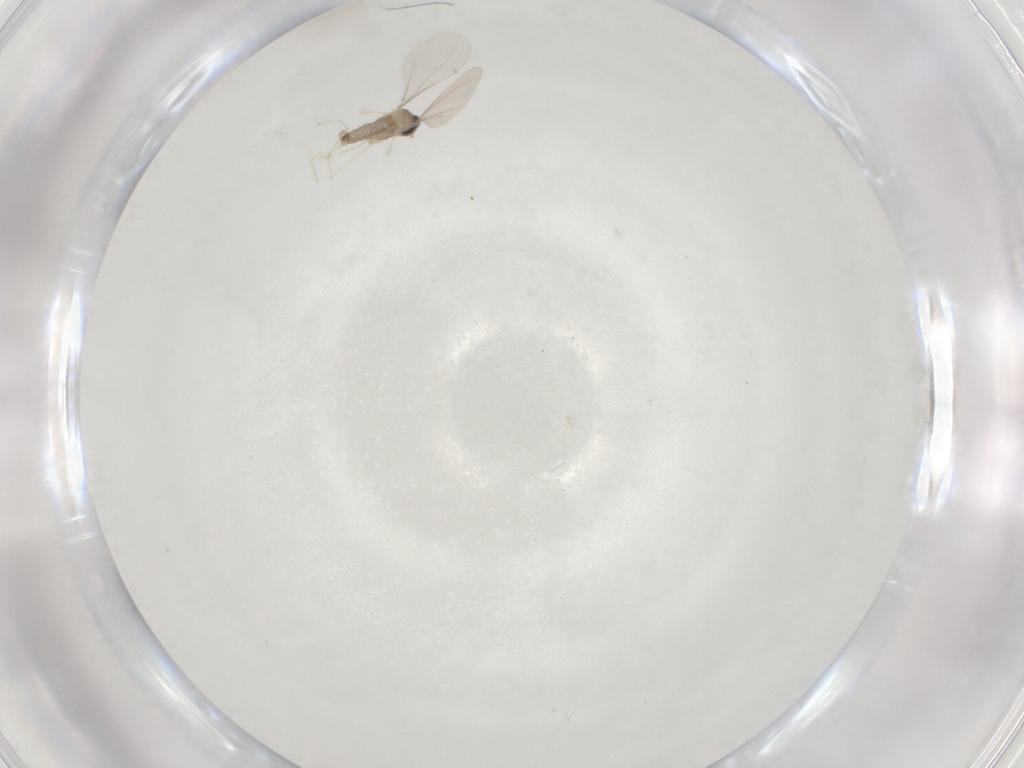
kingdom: Animalia
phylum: Arthropoda
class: Insecta
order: Diptera
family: Cecidomyiidae
